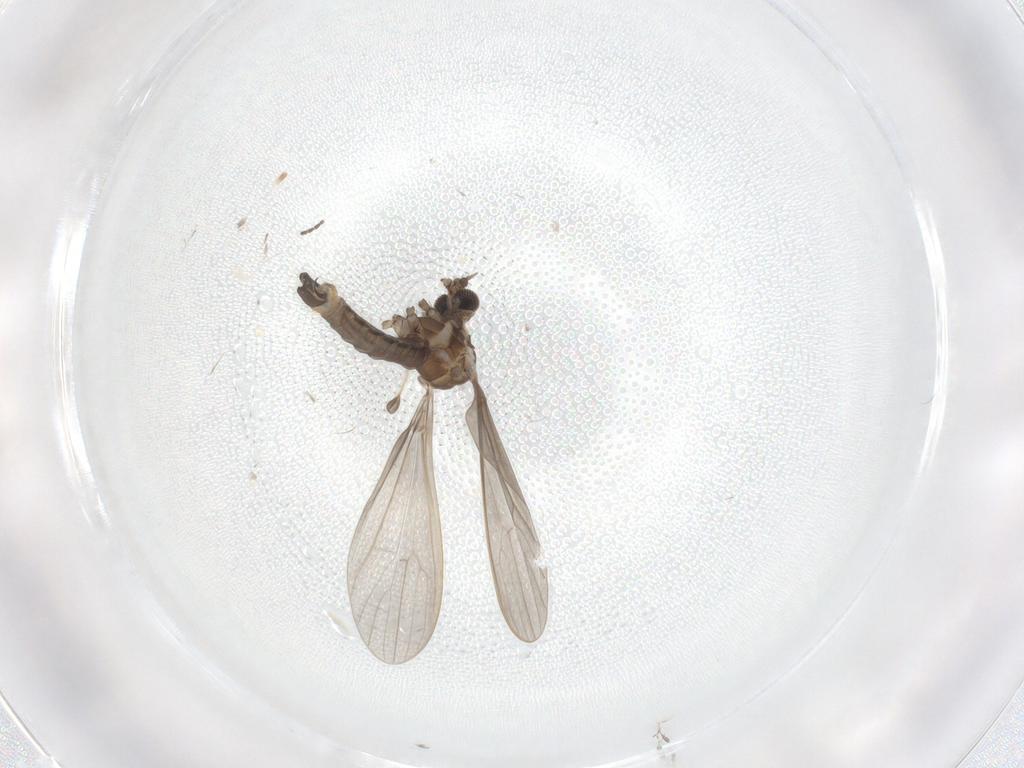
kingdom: Animalia
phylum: Arthropoda
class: Insecta
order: Diptera
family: Limoniidae
